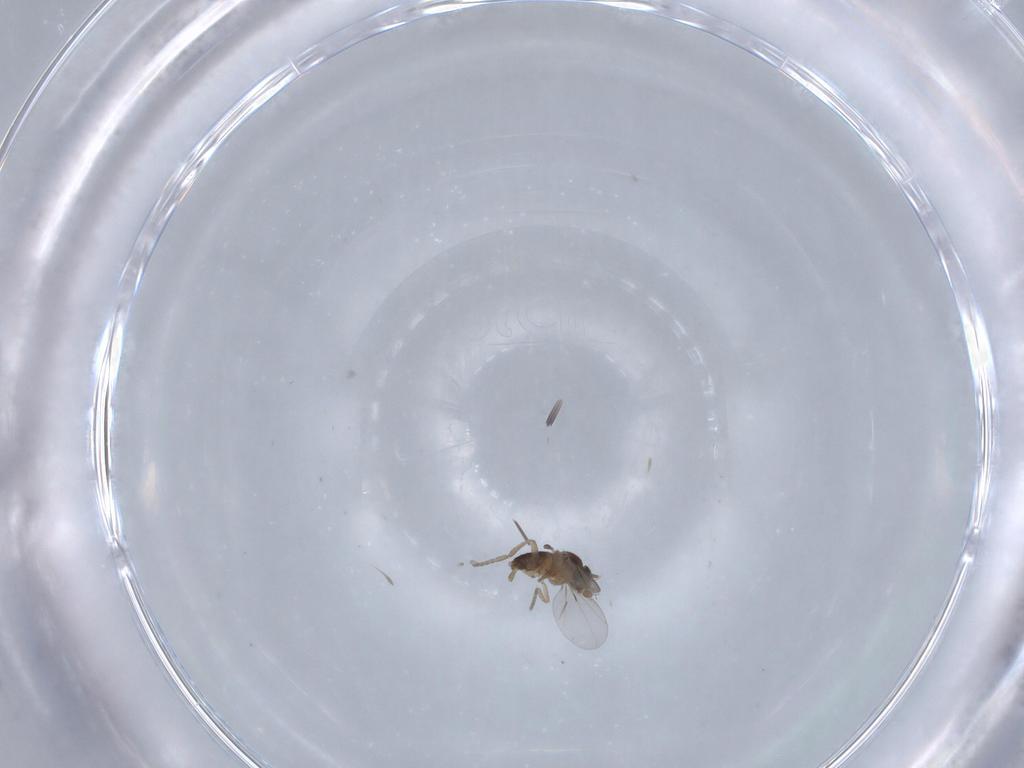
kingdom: Animalia
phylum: Arthropoda
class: Insecta
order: Diptera
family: Phoridae
